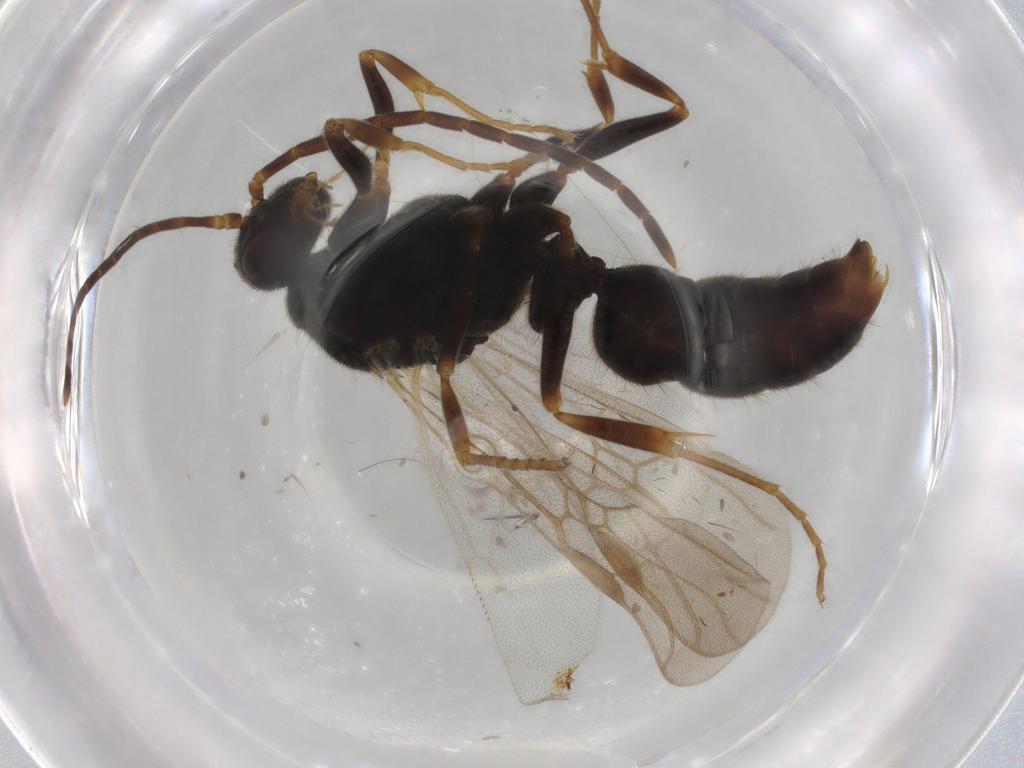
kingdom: Animalia
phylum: Arthropoda
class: Insecta
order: Hymenoptera
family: Formicidae
